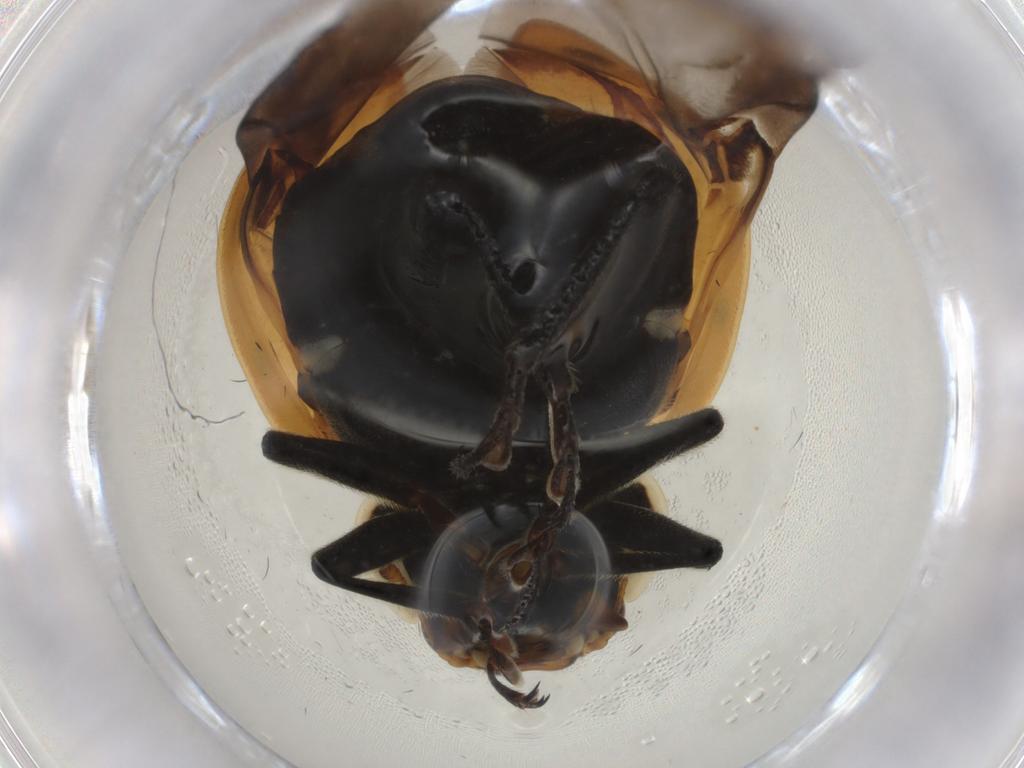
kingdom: Animalia
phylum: Arthropoda
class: Insecta
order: Coleoptera
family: Coccinellidae
